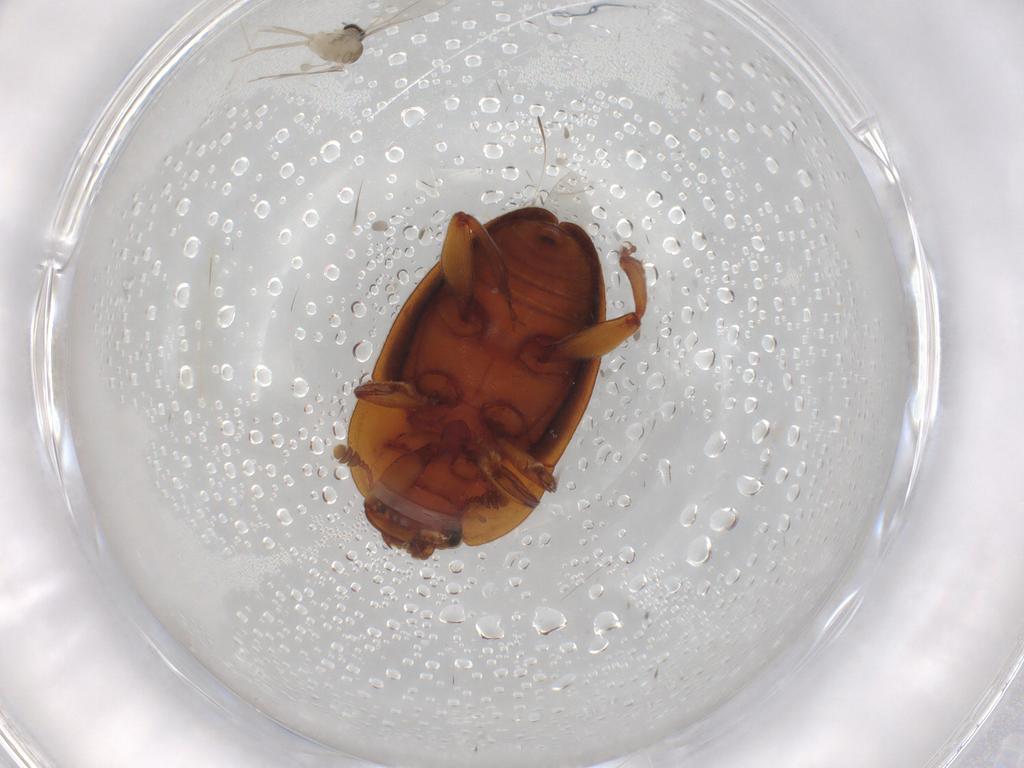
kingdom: Animalia
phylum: Arthropoda
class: Insecta
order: Coleoptera
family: Nitidulidae
